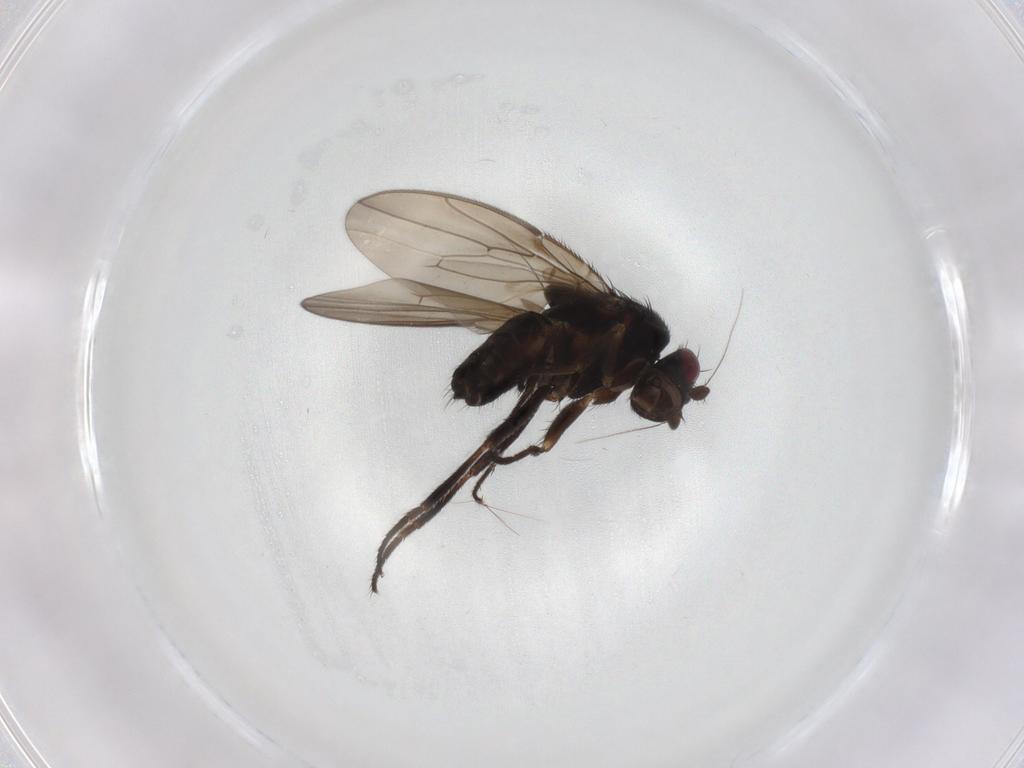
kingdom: Animalia
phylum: Arthropoda
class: Insecta
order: Diptera
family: Sphaeroceridae
